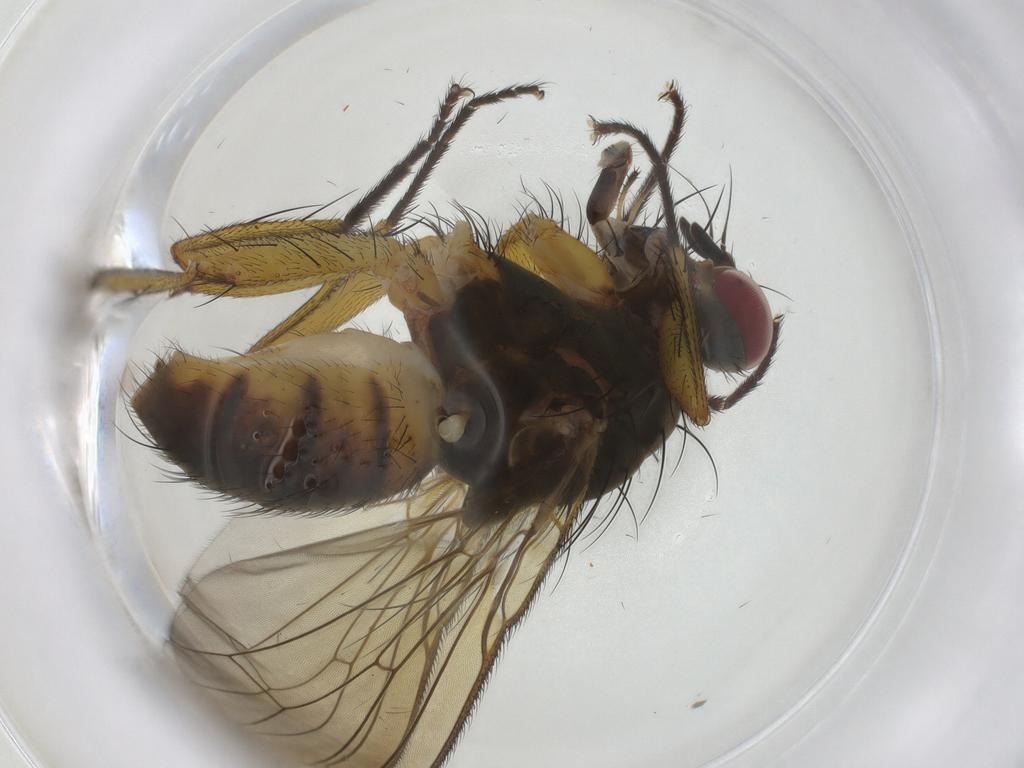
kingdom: Animalia
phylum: Arthropoda
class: Insecta
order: Diptera
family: Muscidae
